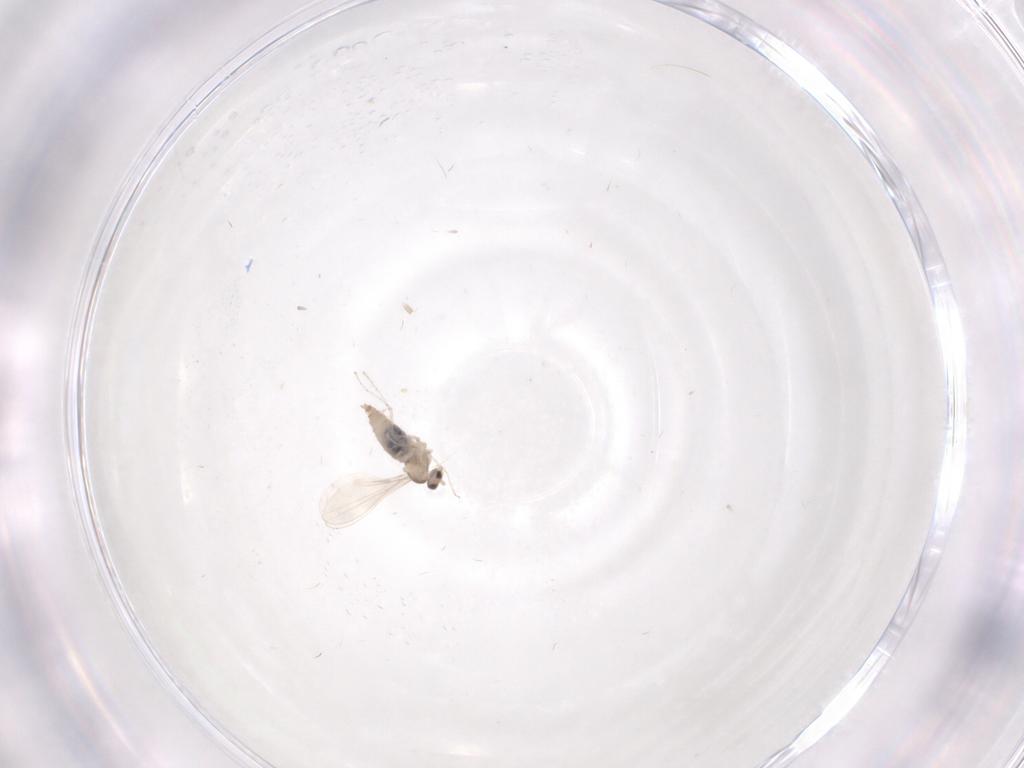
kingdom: Animalia
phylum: Arthropoda
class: Insecta
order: Diptera
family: Cecidomyiidae
